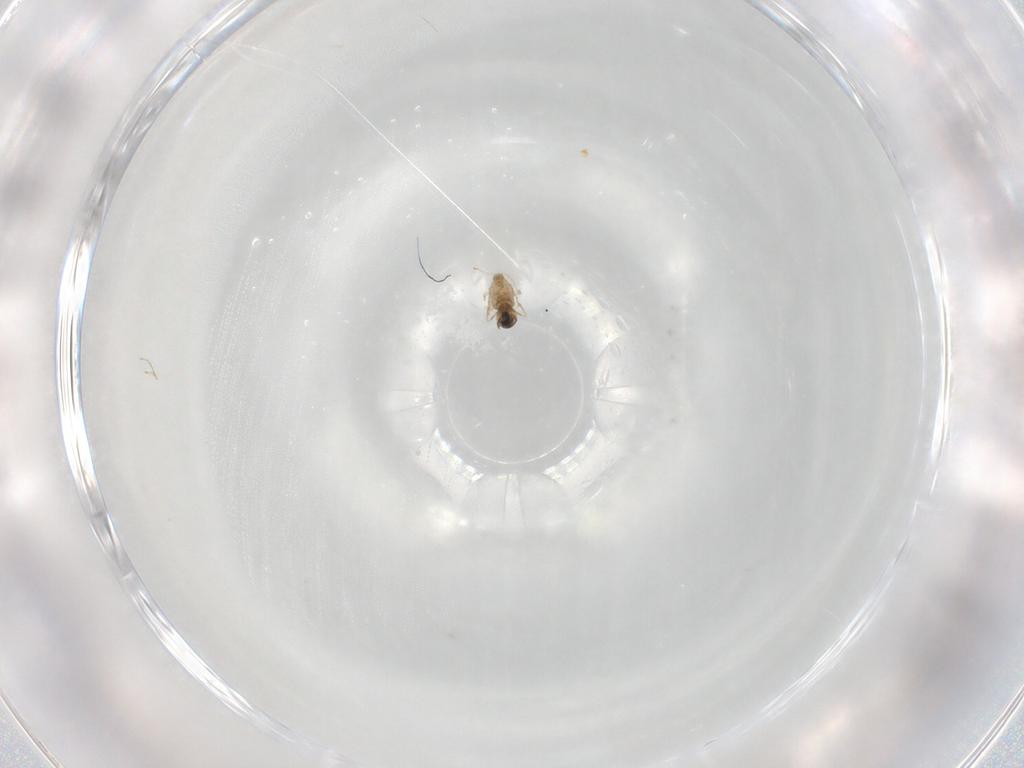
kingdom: Animalia
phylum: Arthropoda
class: Insecta
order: Diptera
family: Cecidomyiidae
